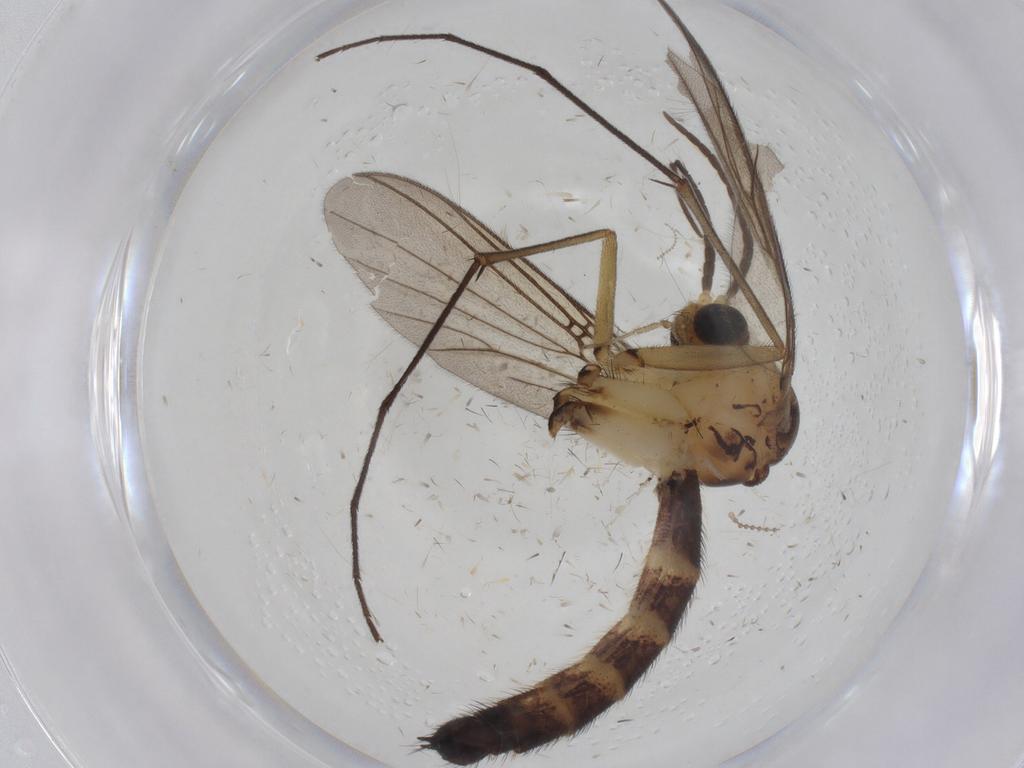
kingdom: Animalia
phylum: Arthropoda
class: Insecta
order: Diptera
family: Cecidomyiidae
